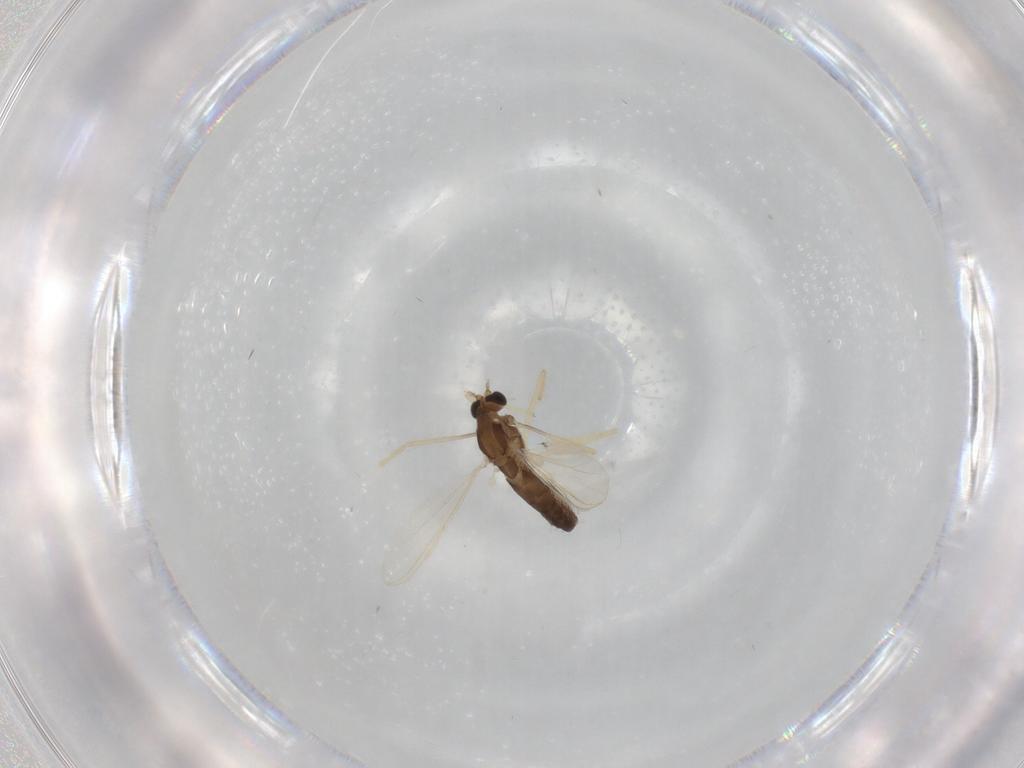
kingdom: Animalia
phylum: Arthropoda
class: Insecta
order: Diptera
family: Chironomidae
